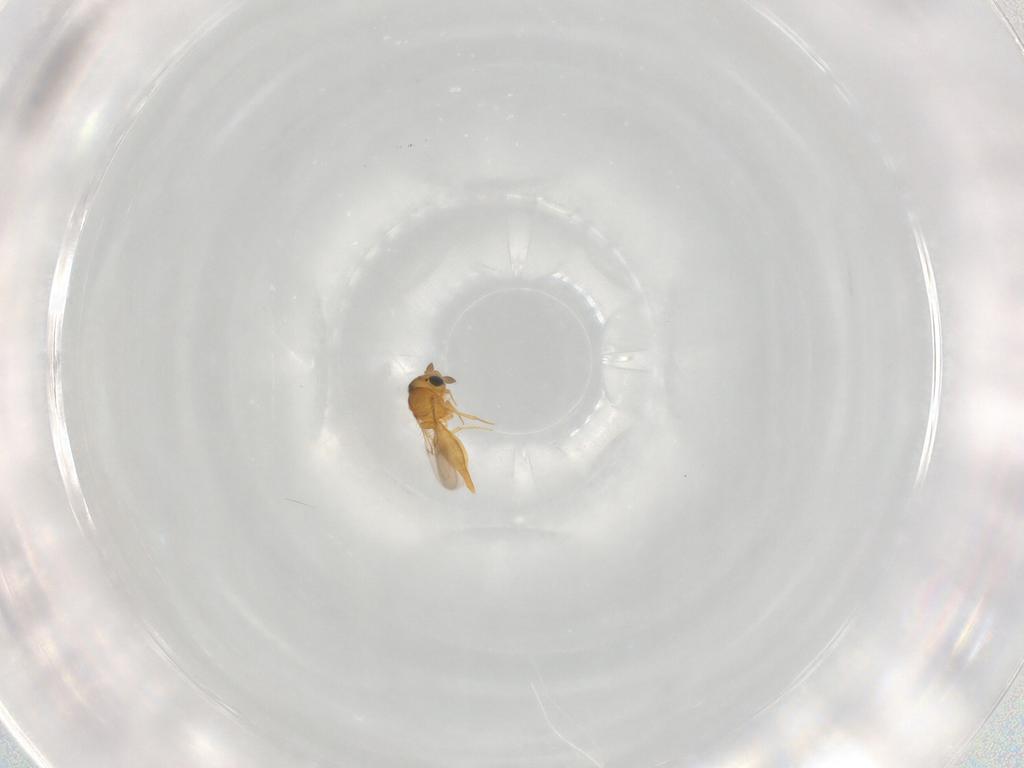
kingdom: Animalia
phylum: Arthropoda
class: Insecta
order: Hymenoptera
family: Scelionidae
